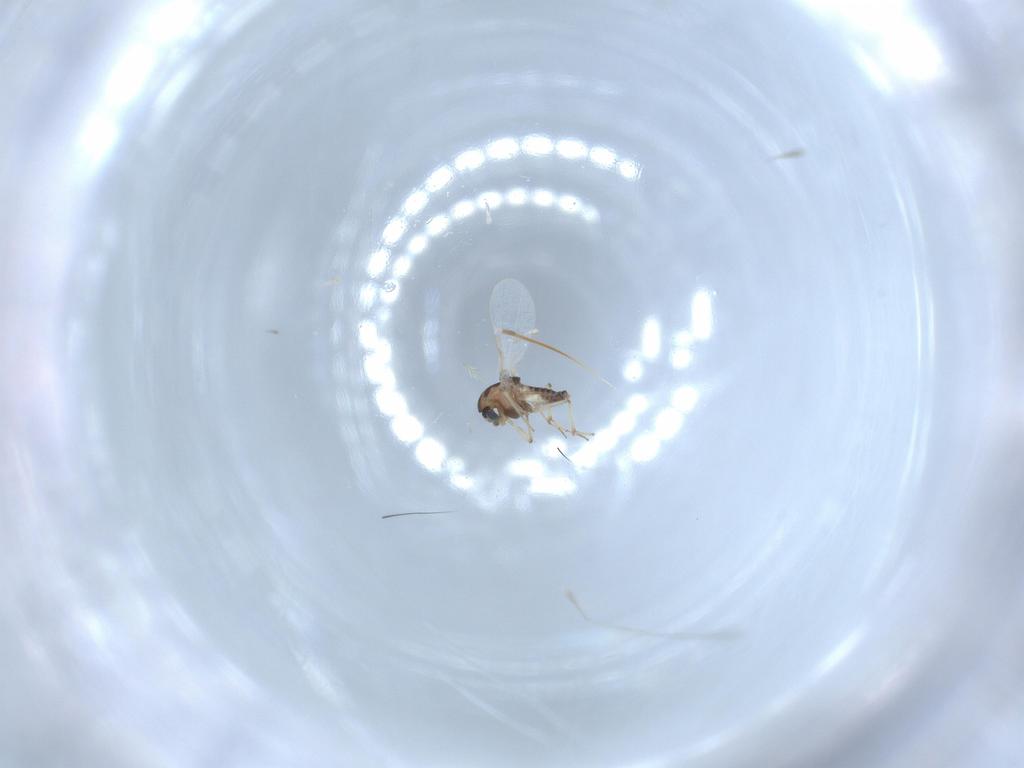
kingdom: Animalia
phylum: Arthropoda
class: Insecta
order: Diptera
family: Chironomidae
